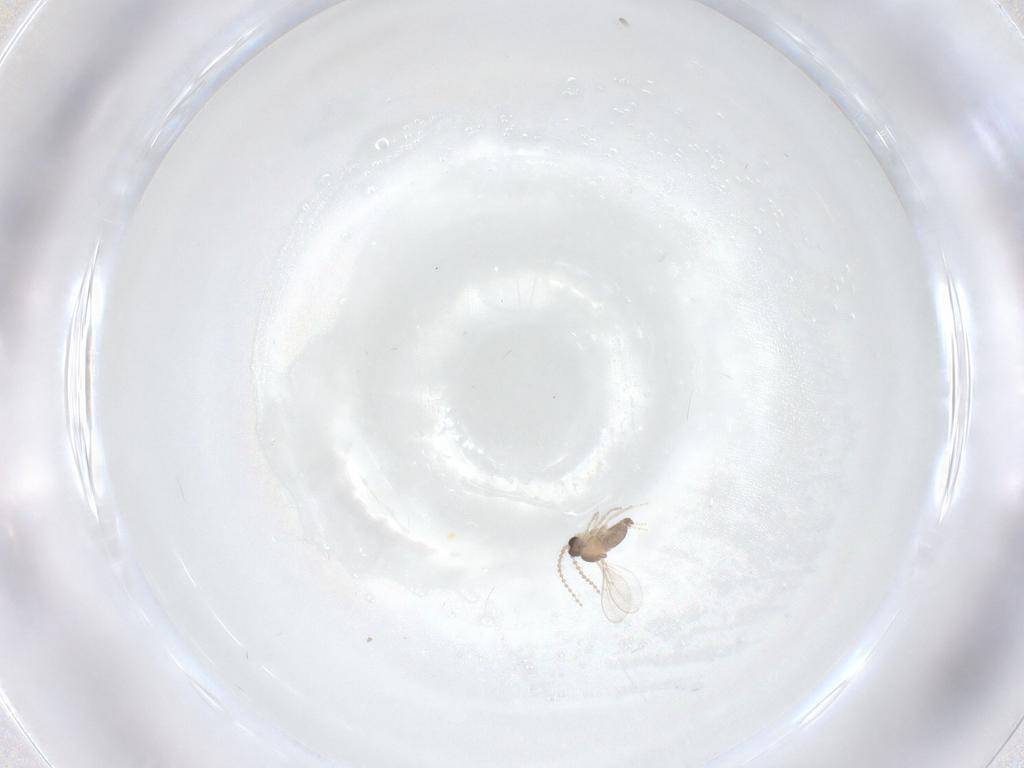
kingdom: Animalia
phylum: Arthropoda
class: Insecta
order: Diptera
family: Cecidomyiidae
